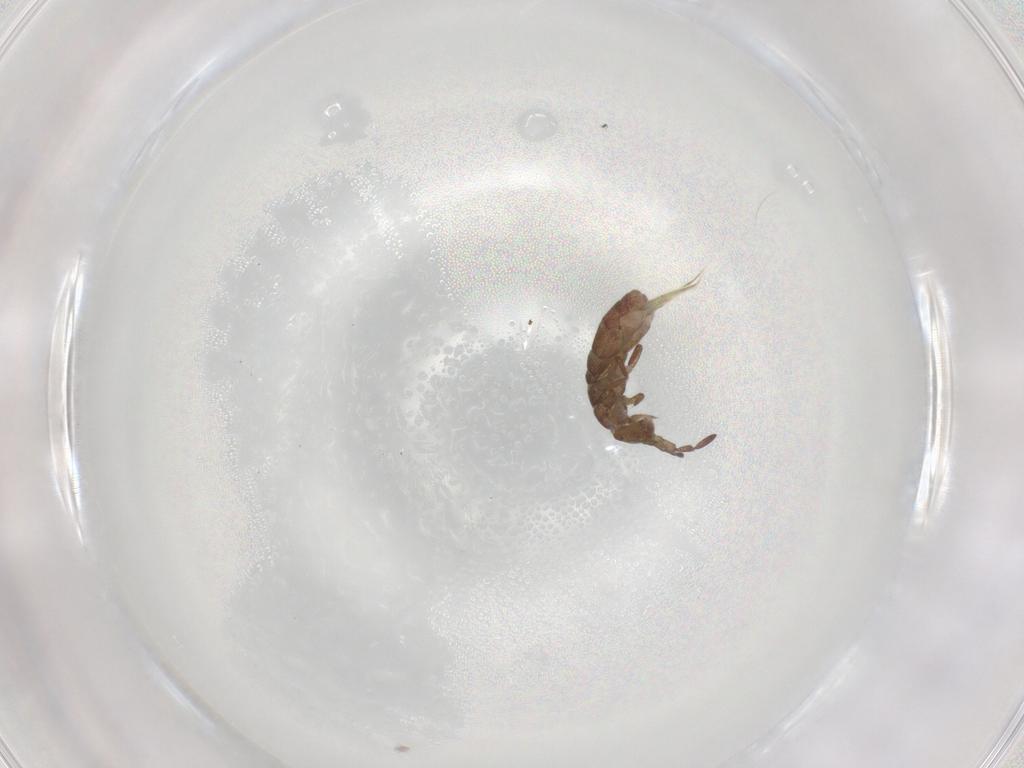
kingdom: Animalia
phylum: Arthropoda
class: Collembola
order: Entomobryomorpha
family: Isotomidae
